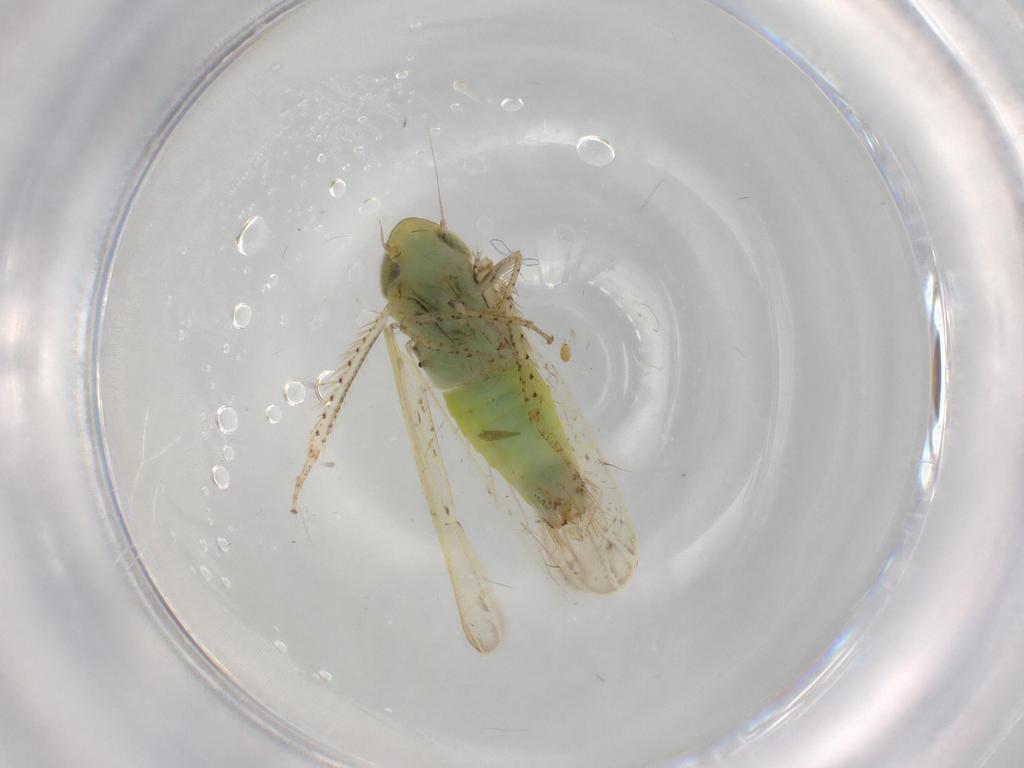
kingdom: Animalia
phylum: Arthropoda
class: Insecta
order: Hemiptera
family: Cicadellidae
